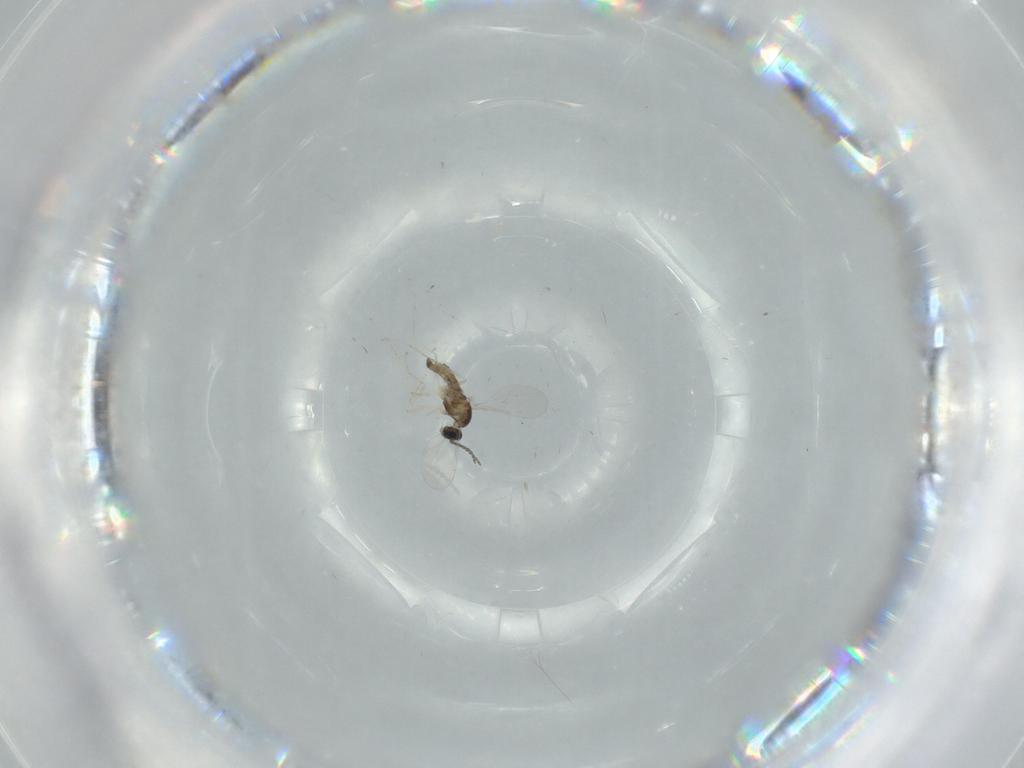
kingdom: Animalia
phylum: Arthropoda
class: Insecta
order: Diptera
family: Cecidomyiidae
